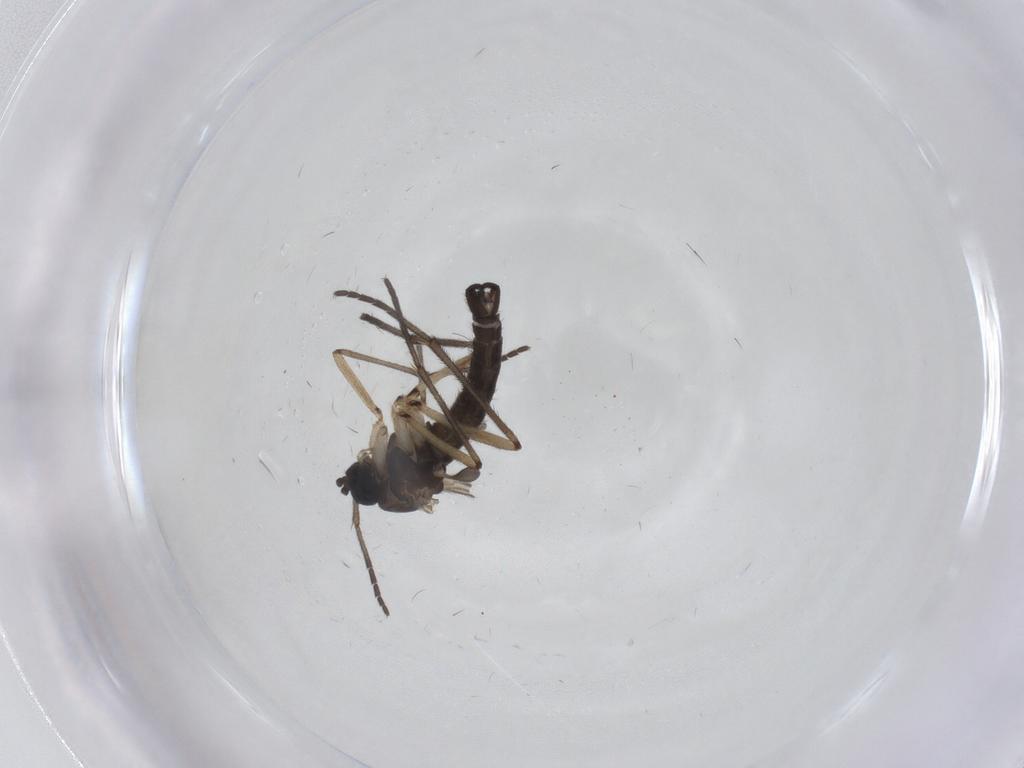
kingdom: Animalia
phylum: Arthropoda
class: Insecta
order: Diptera
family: Sciaridae
